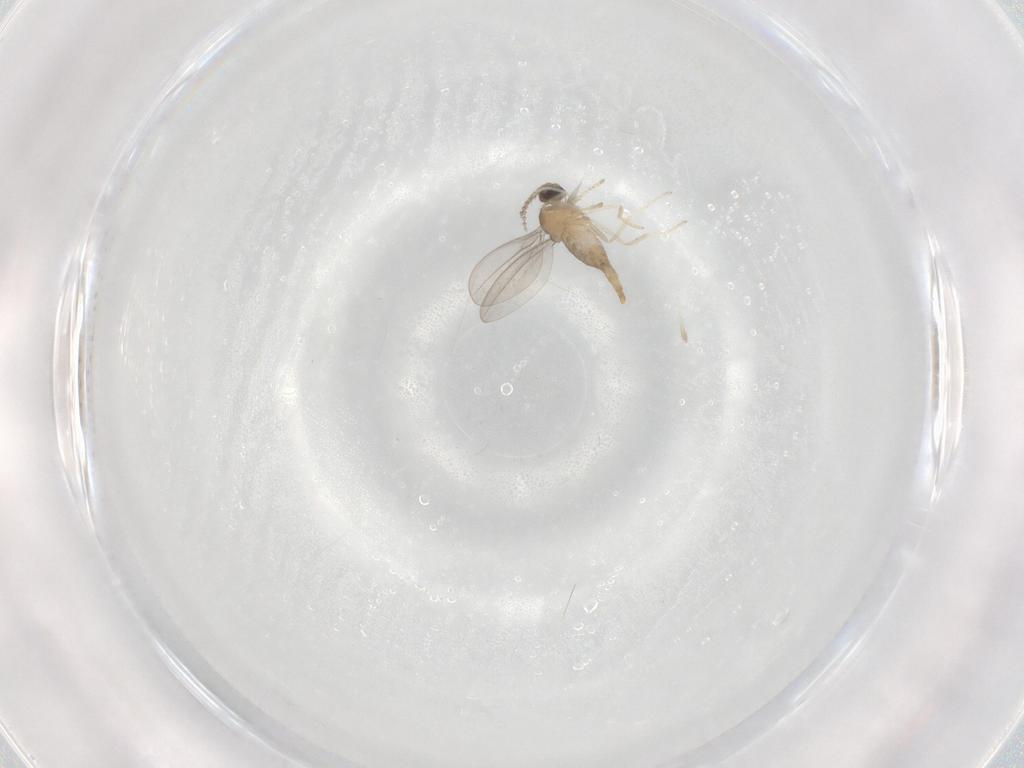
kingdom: Animalia
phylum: Arthropoda
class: Insecta
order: Diptera
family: Cecidomyiidae
